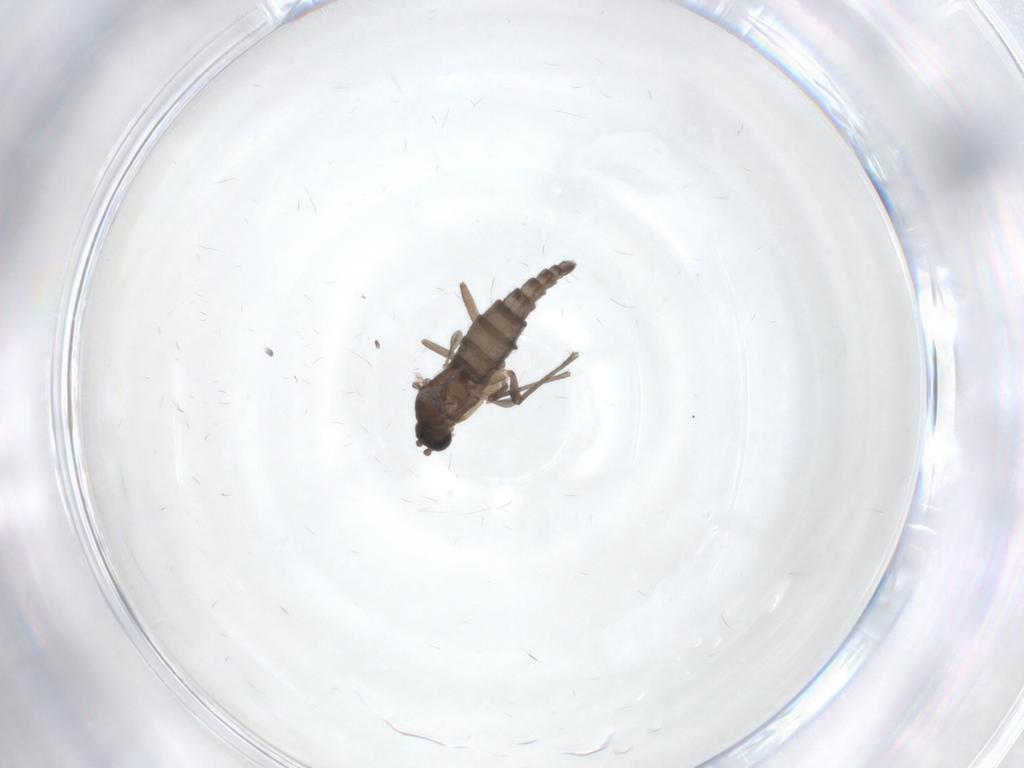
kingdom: Animalia
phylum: Arthropoda
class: Insecta
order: Diptera
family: Sciaridae
